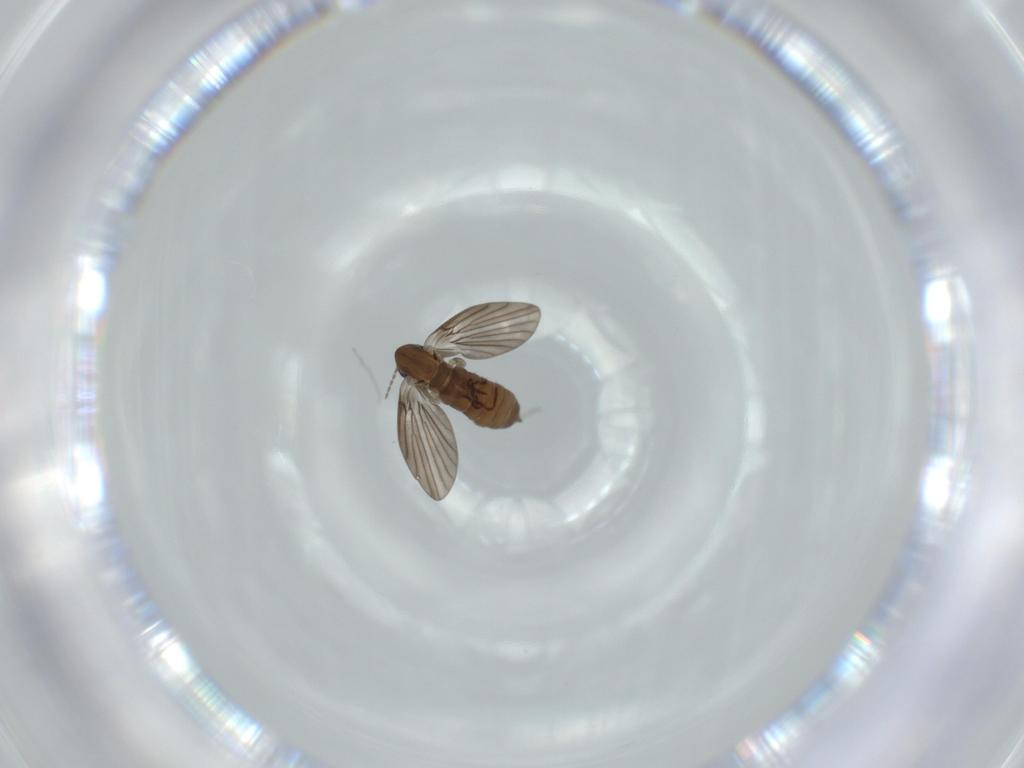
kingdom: Animalia
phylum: Arthropoda
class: Insecta
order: Diptera
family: Psychodidae
